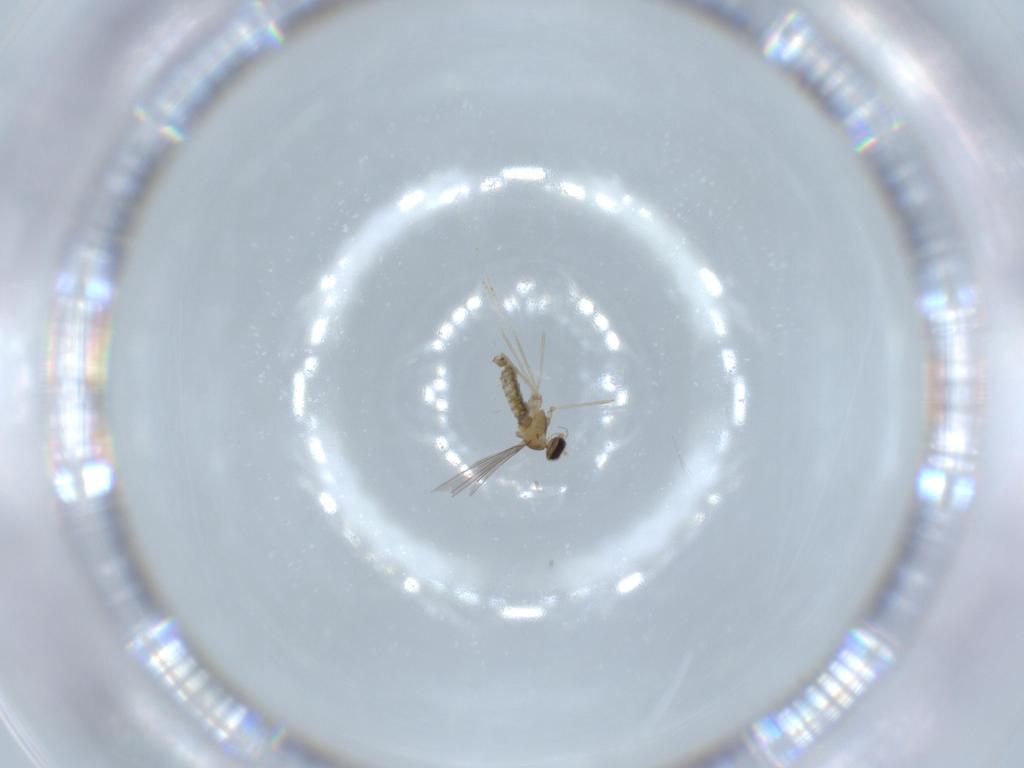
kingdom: Animalia
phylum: Arthropoda
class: Insecta
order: Diptera
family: Cecidomyiidae
